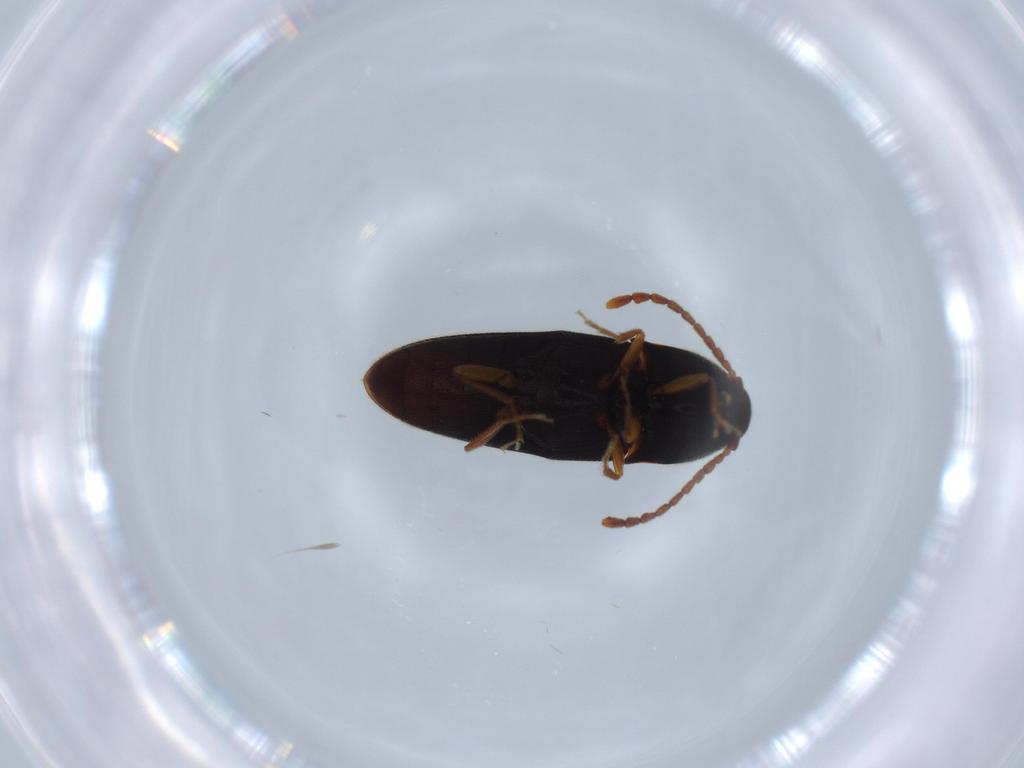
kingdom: Animalia
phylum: Arthropoda
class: Insecta
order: Coleoptera
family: Elateridae
